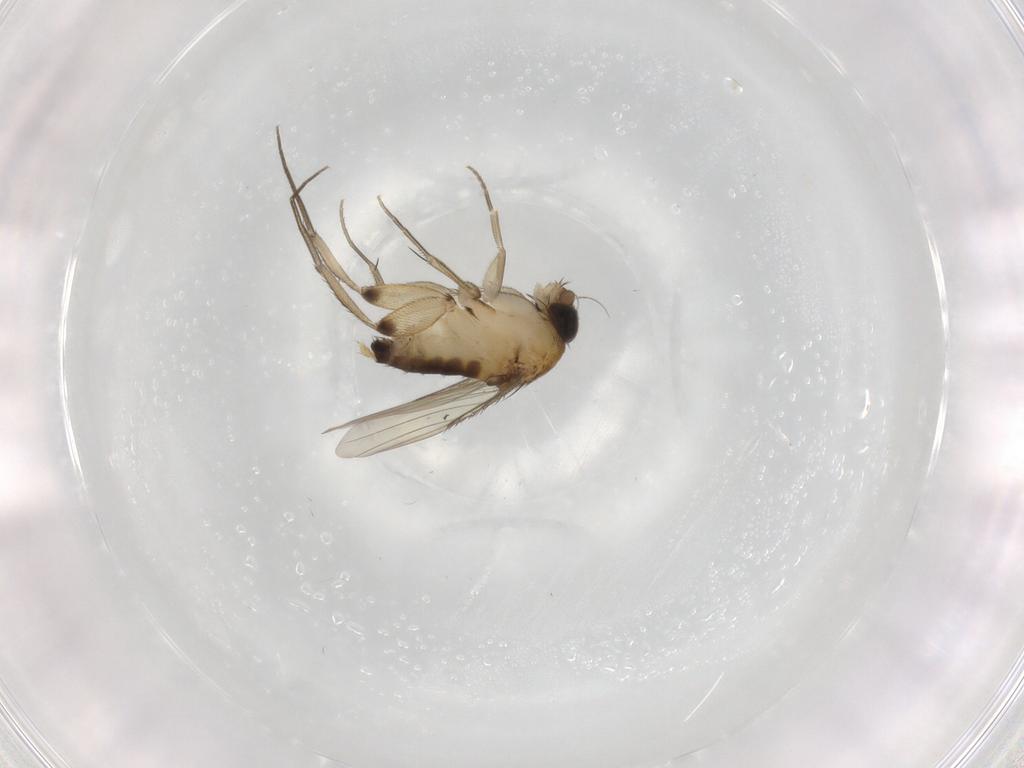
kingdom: Animalia
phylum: Arthropoda
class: Insecta
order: Diptera
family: Phoridae
